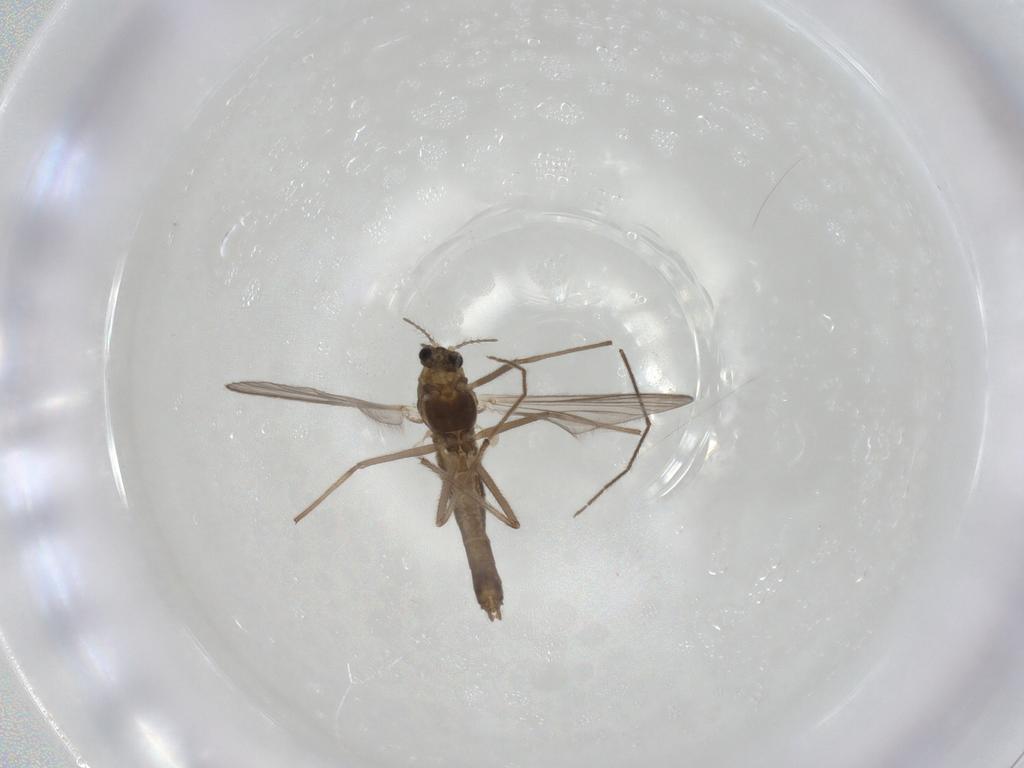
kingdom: Animalia
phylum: Arthropoda
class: Insecta
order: Diptera
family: Chironomidae
